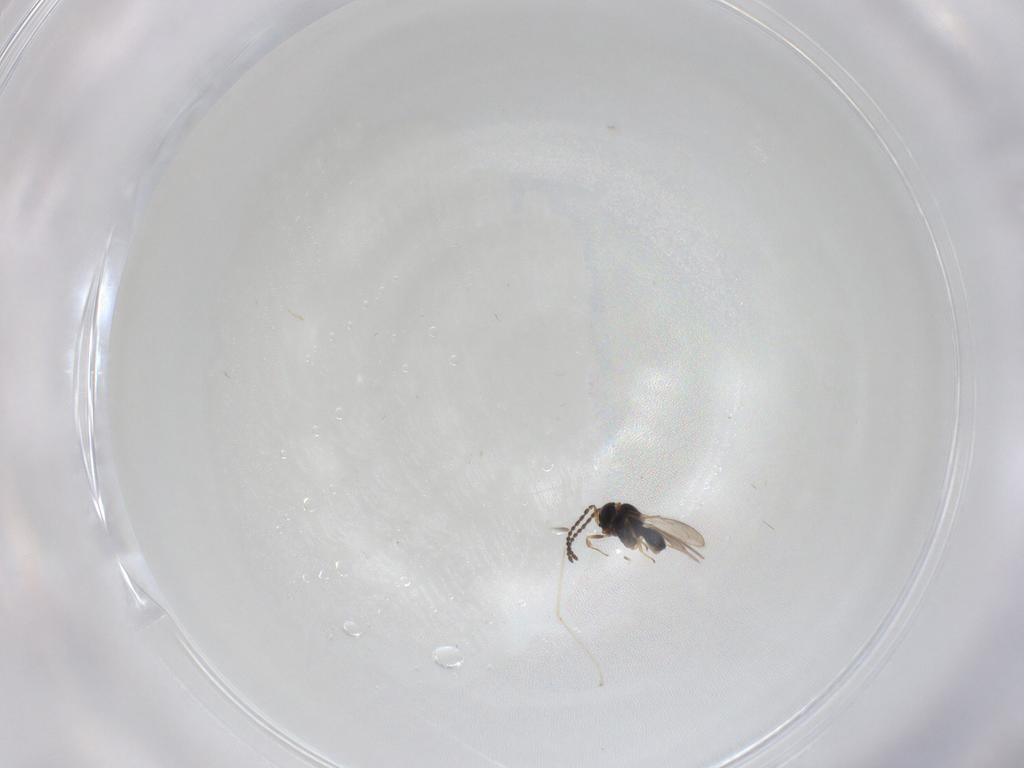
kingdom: Animalia
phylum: Arthropoda
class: Insecta
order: Hymenoptera
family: Scelionidae
